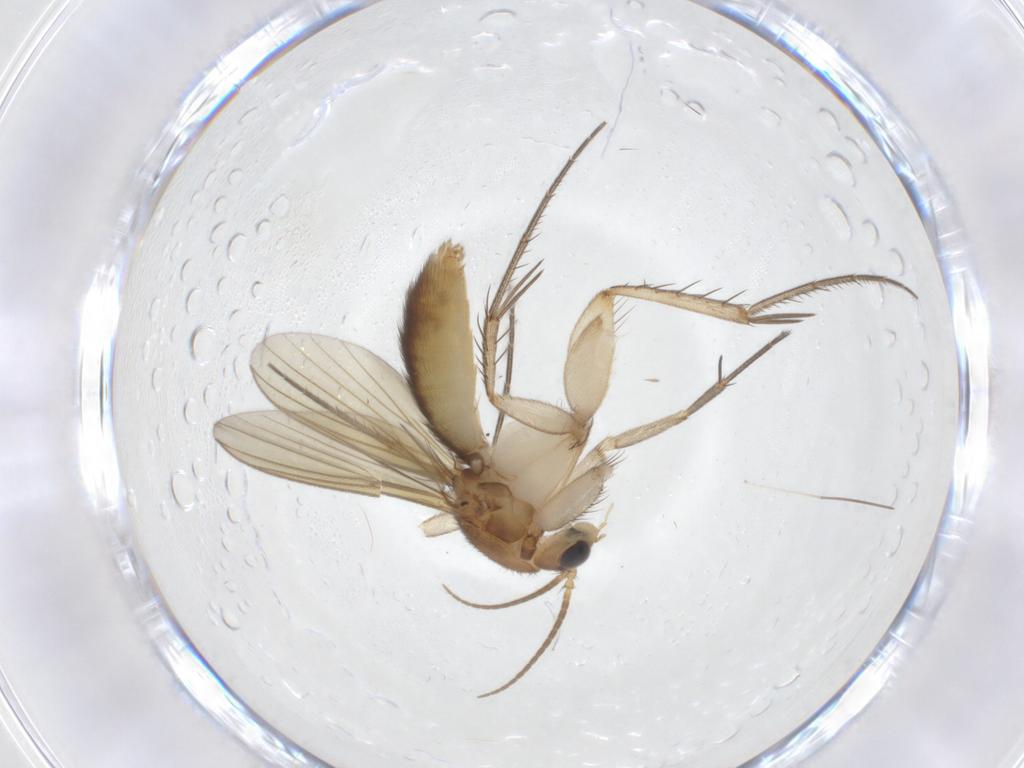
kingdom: Animalia
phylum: Arthropoda
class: Insecta
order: Diptera
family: Mycetophilidae
